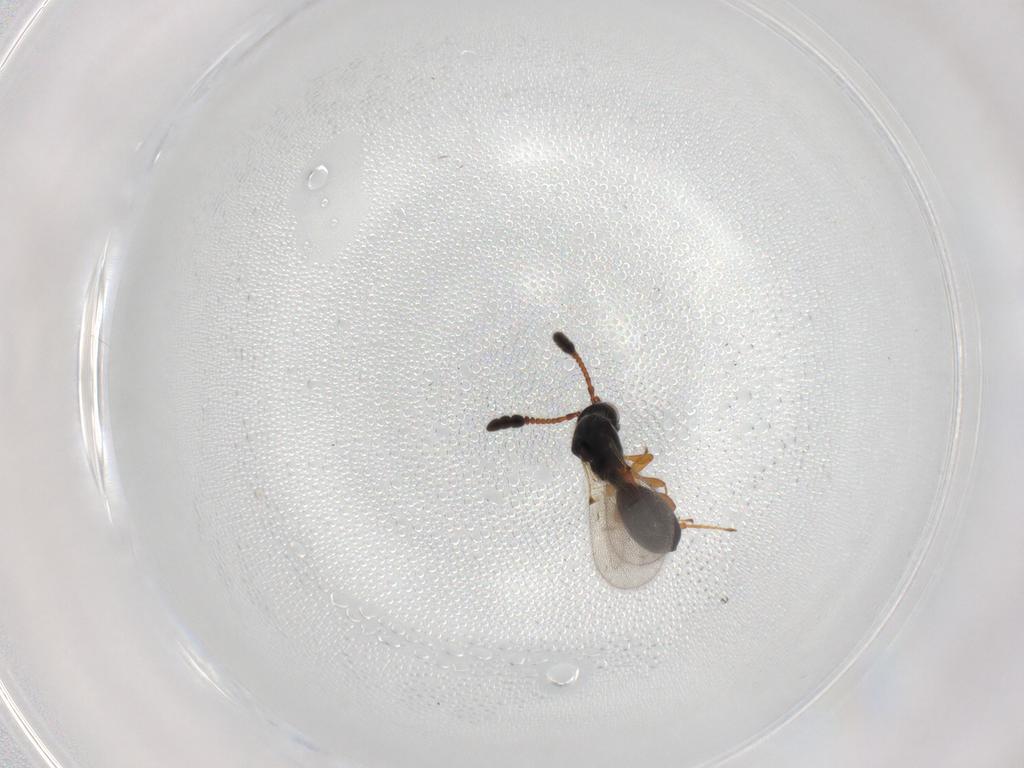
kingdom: Animalia
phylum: Arthropoda
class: Insecta
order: Hymenoptera
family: Diapriidae
